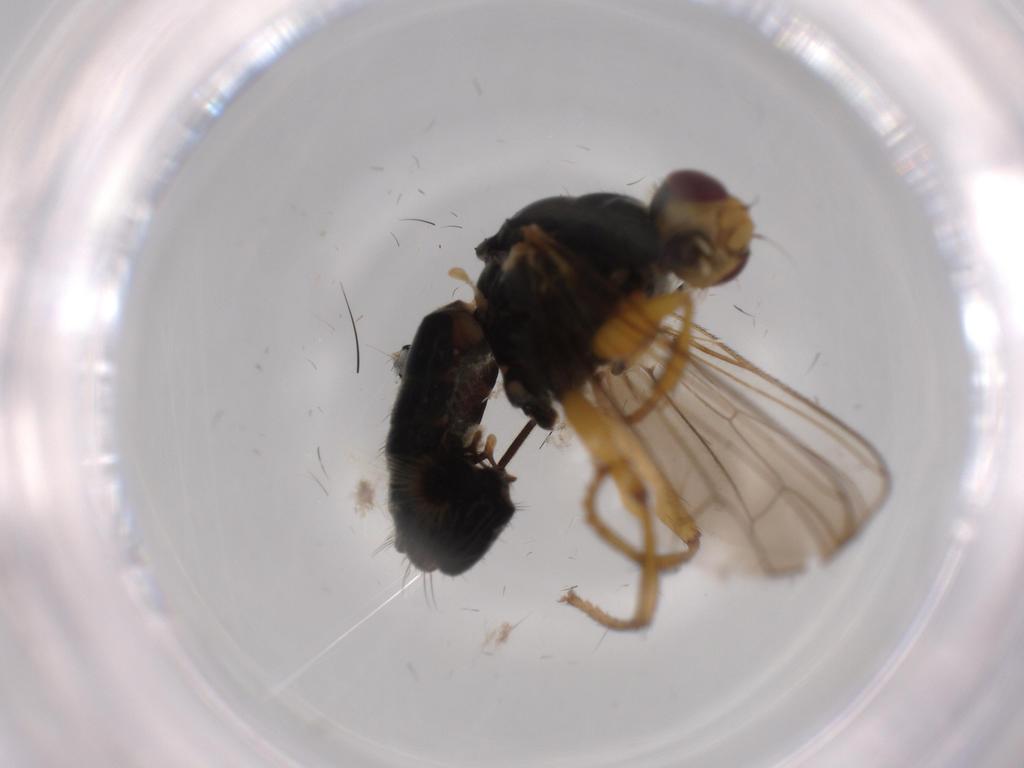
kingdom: Animalia
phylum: Arthropoda
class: Insecta
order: Diptera
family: Scathophagidae
